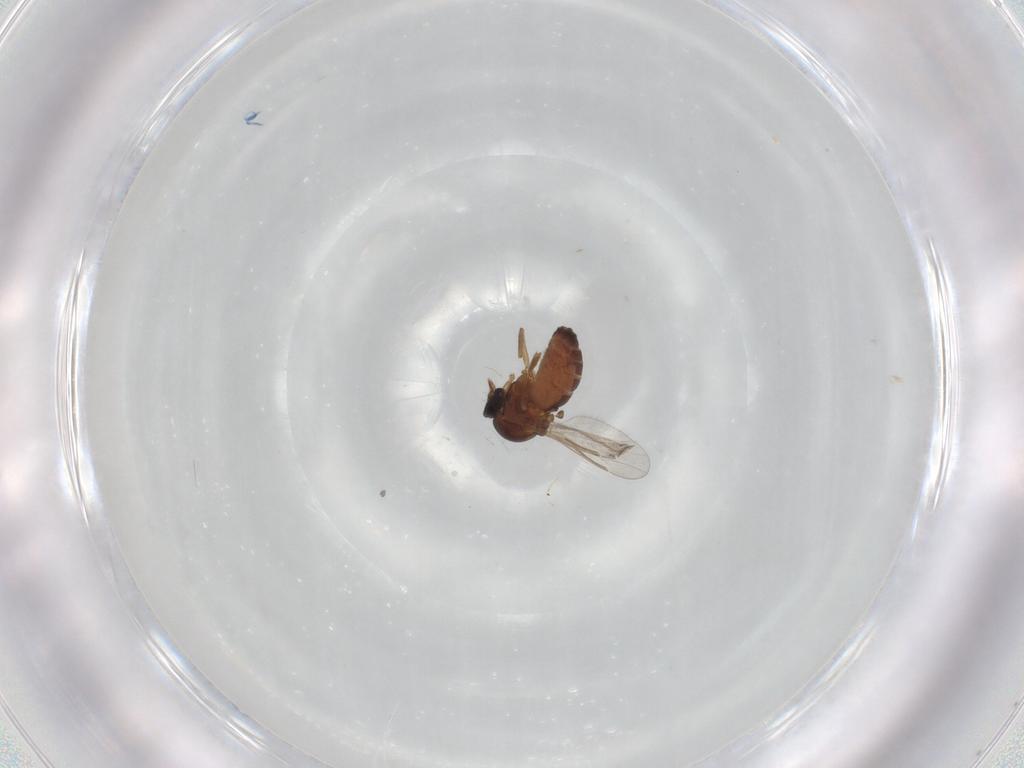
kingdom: Animalia
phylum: Arthropoda
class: Insecta
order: Diptera
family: Ceratopogonidae
